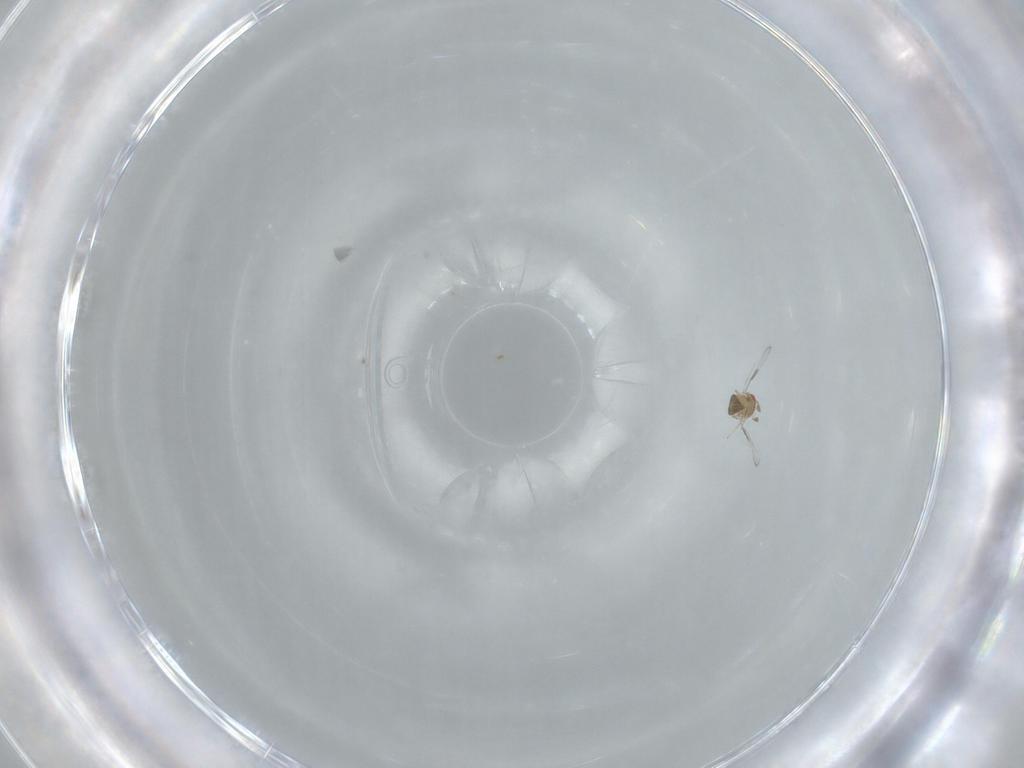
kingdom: Animalia
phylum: Arthropoda
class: Insecta
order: Psocodea
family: Caeciliusidae
